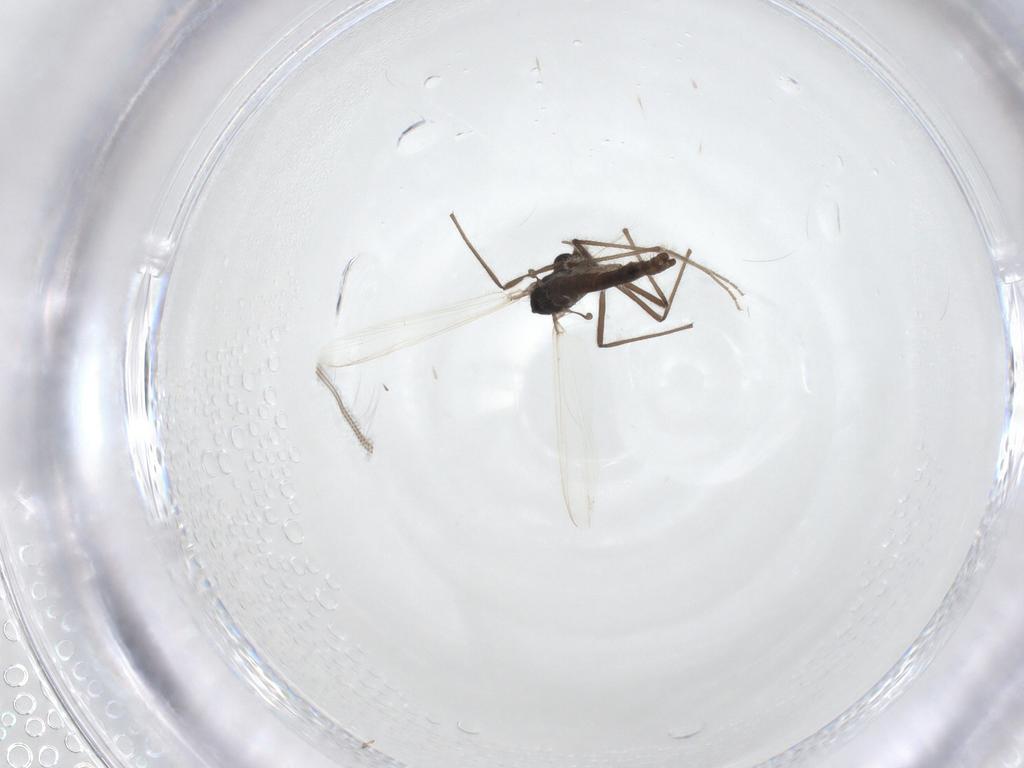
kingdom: Animalia
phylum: Arthropoda
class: Insecta
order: Diptera
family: Chironomidae
